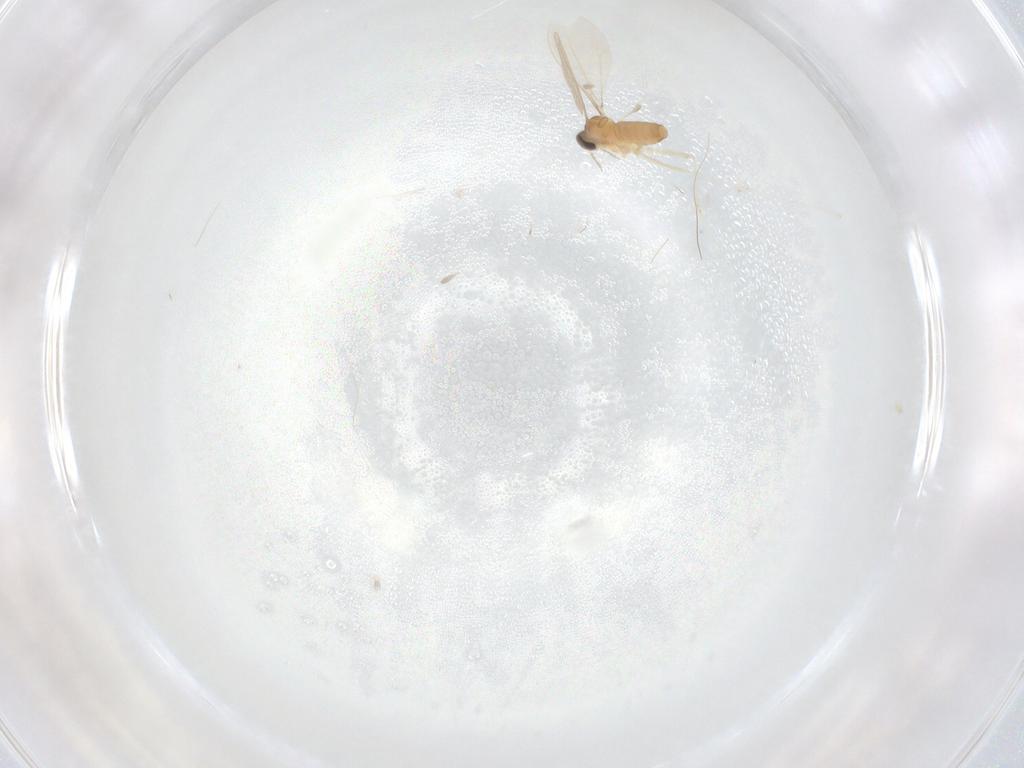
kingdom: Animalia
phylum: Arthropoda
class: Insecta
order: Diptera
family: Cecidomyiidae
